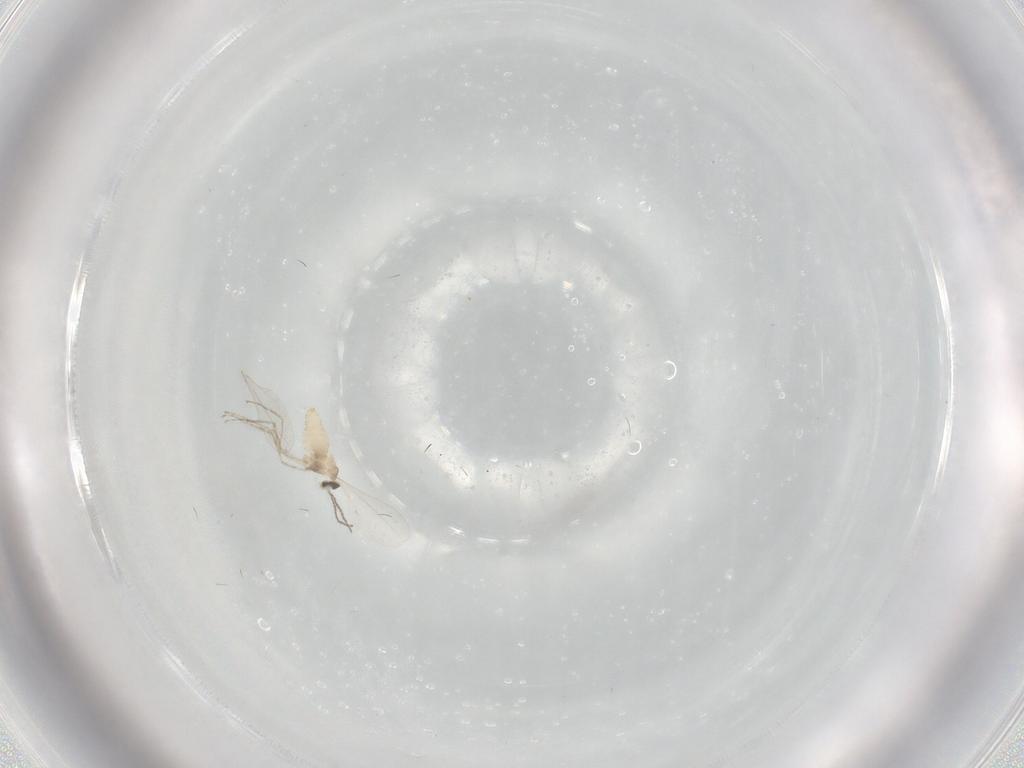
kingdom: Animalia
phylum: Arthropoda
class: Insecta
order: Diptera
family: Cecidomyiidae
